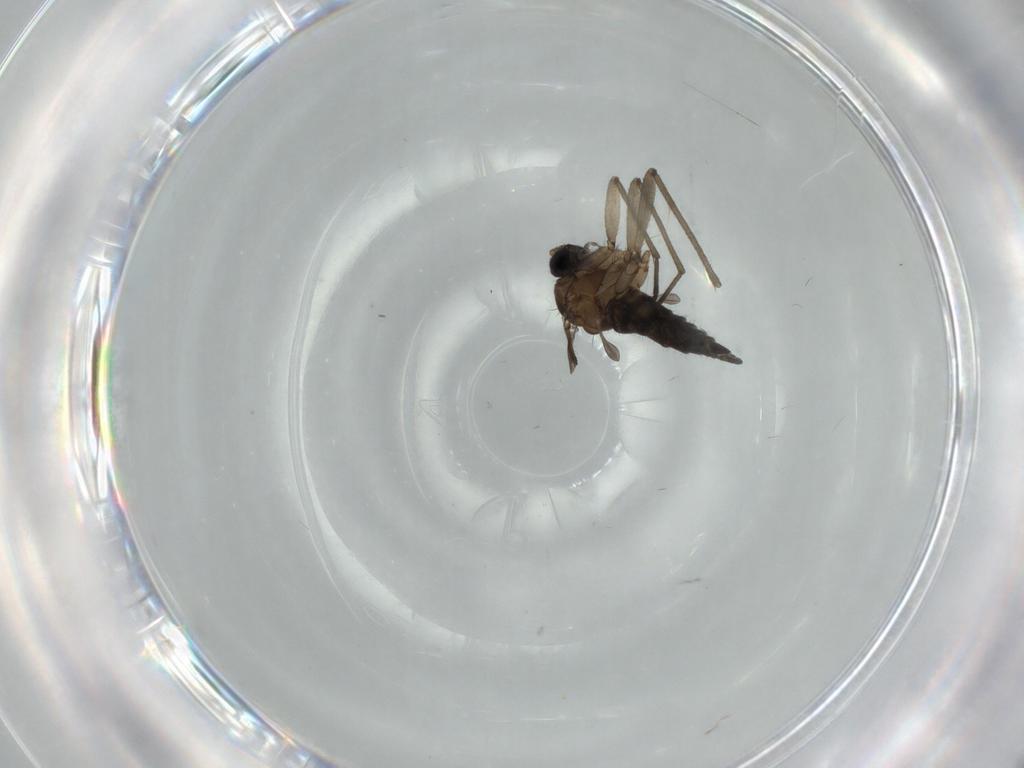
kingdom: Animalia
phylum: Arthropoda
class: Insecta
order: Diptera
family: Sciaridae
